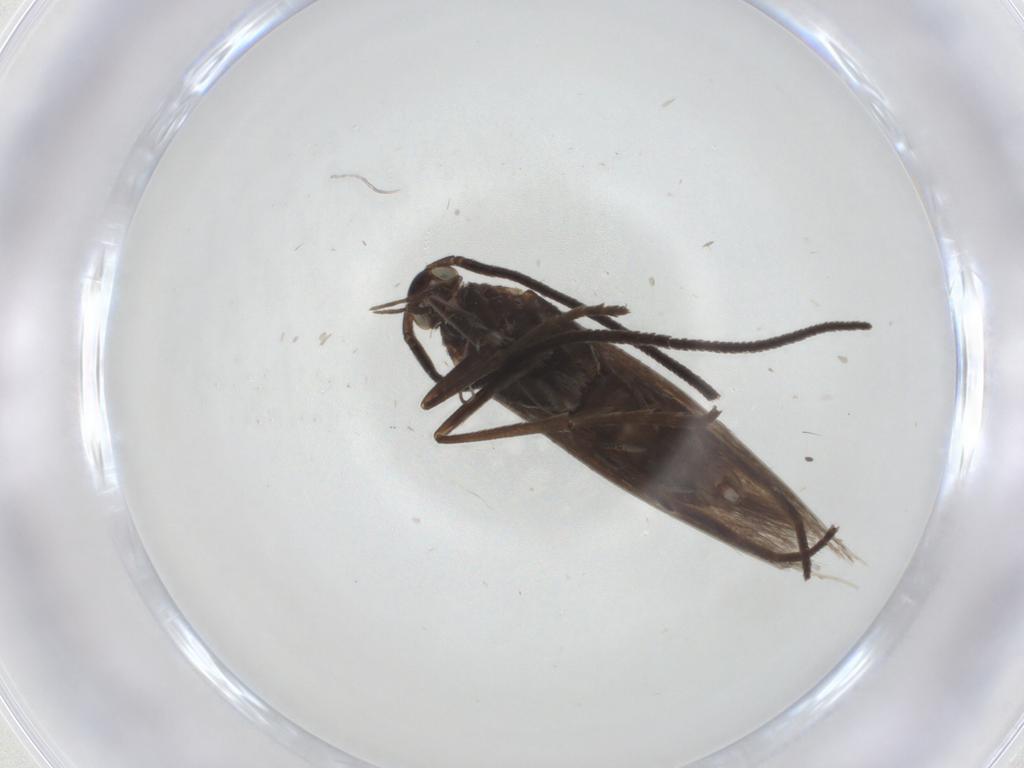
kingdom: Animalia
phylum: Arthropoda
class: Insecta
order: Lepidoptera
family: Coleophoridae
